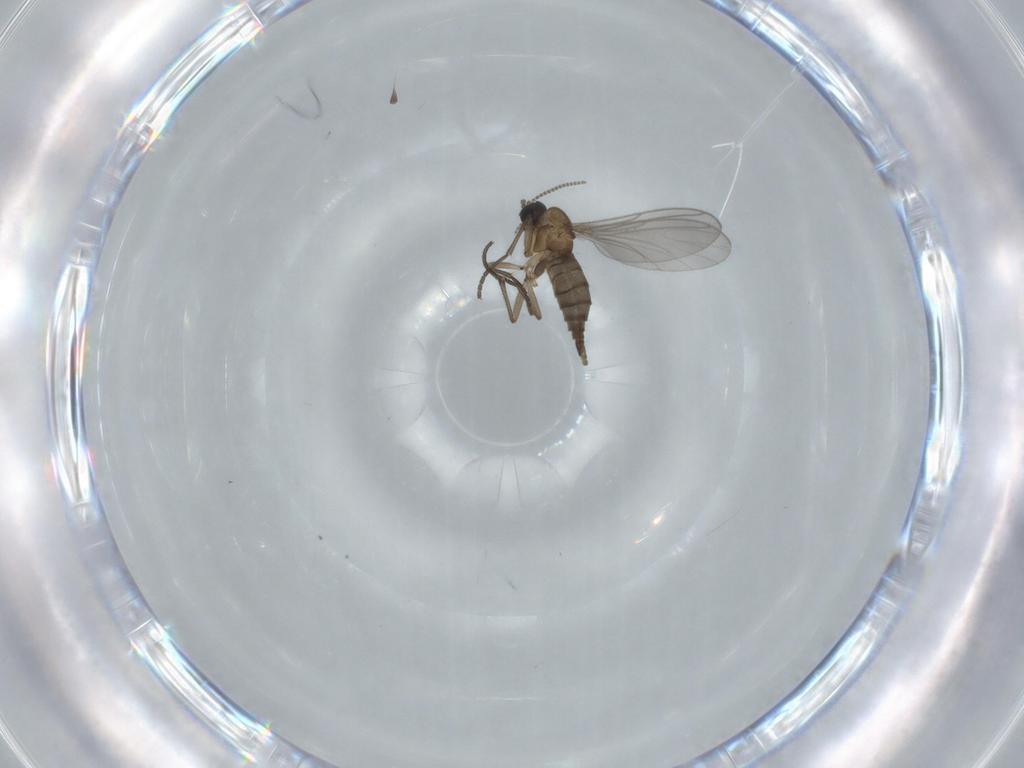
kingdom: Animalia
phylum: Arthropoda
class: Insecta
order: Diptera
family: Sciaridae
